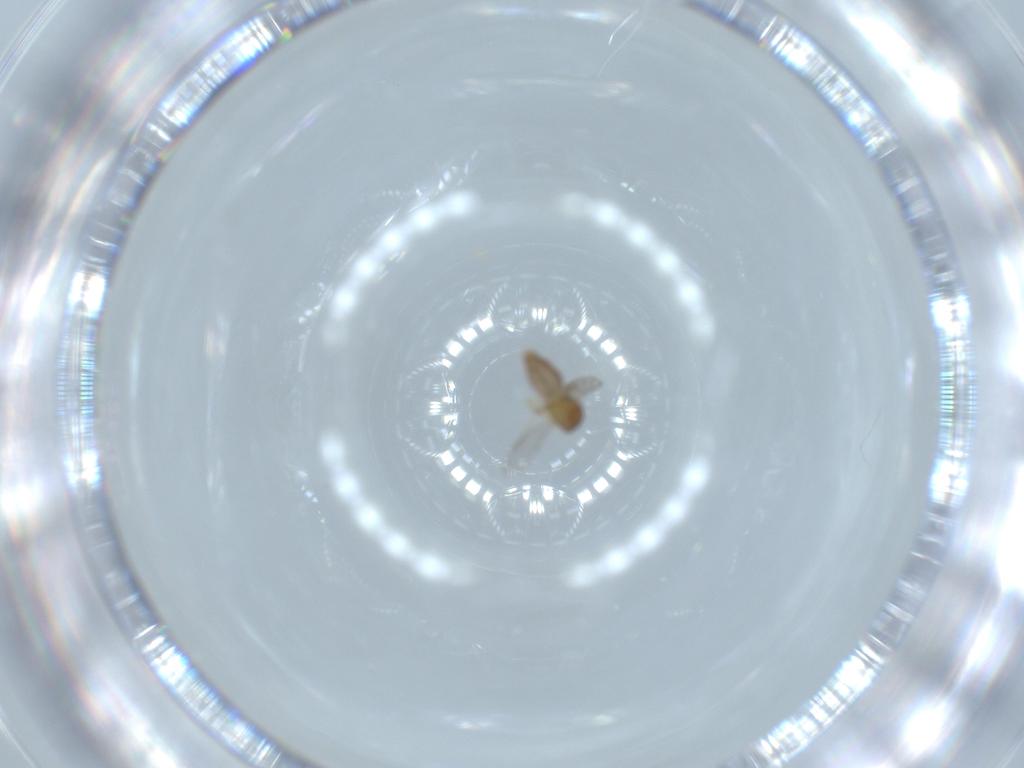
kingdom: Animalia
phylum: Arthropoda
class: Insecta
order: Diptera
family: Ceratopogonidae
